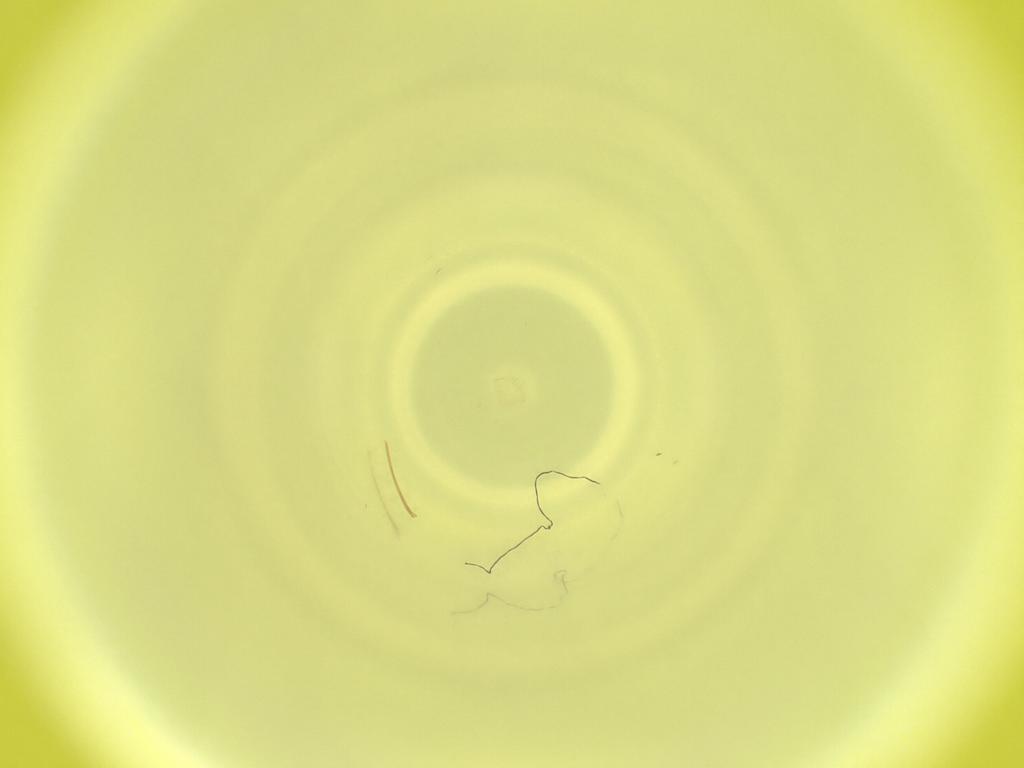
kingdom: Animalia
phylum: Arthropoda
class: Insecta
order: Diptera
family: Cecidomyiidae
